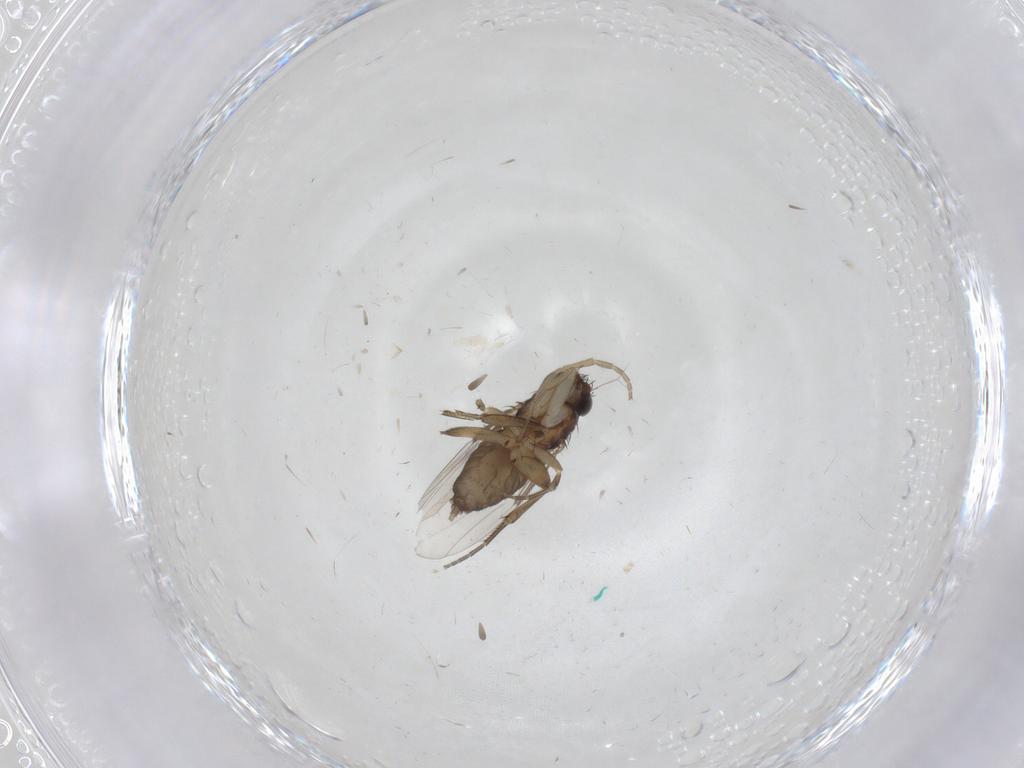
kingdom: Animalia
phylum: Arthropoda
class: Insecta
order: Diptera
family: Phoridae
